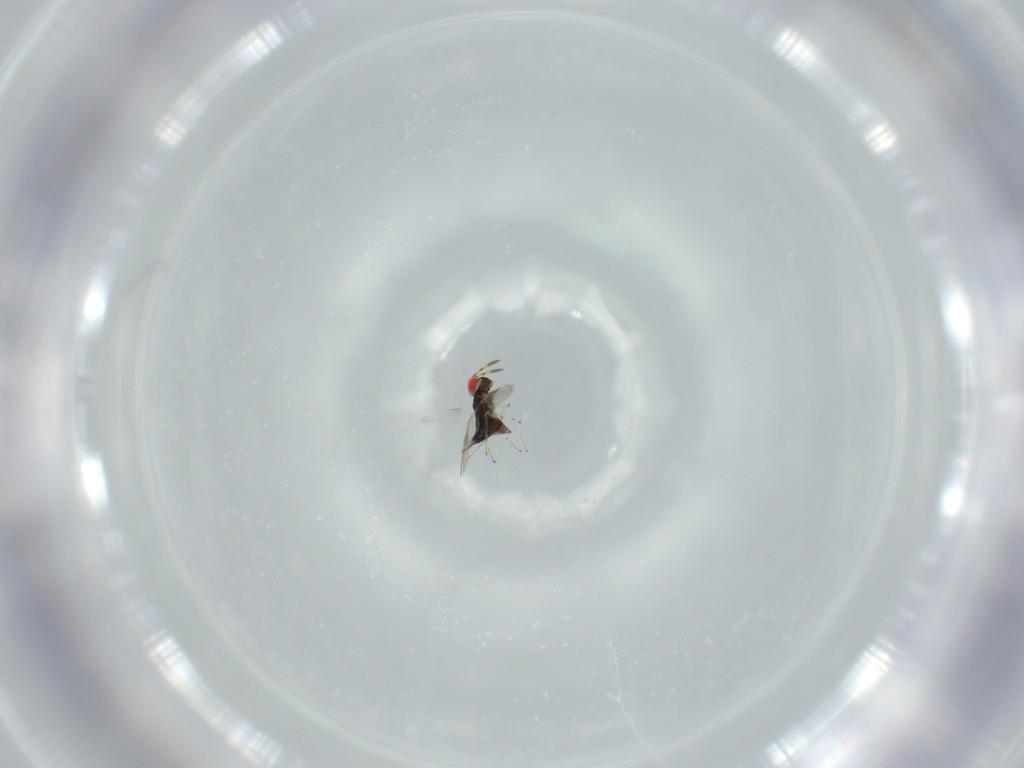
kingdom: Animalia
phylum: Arthropoda
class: Insecta
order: Hymenoptera
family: Azotidae
